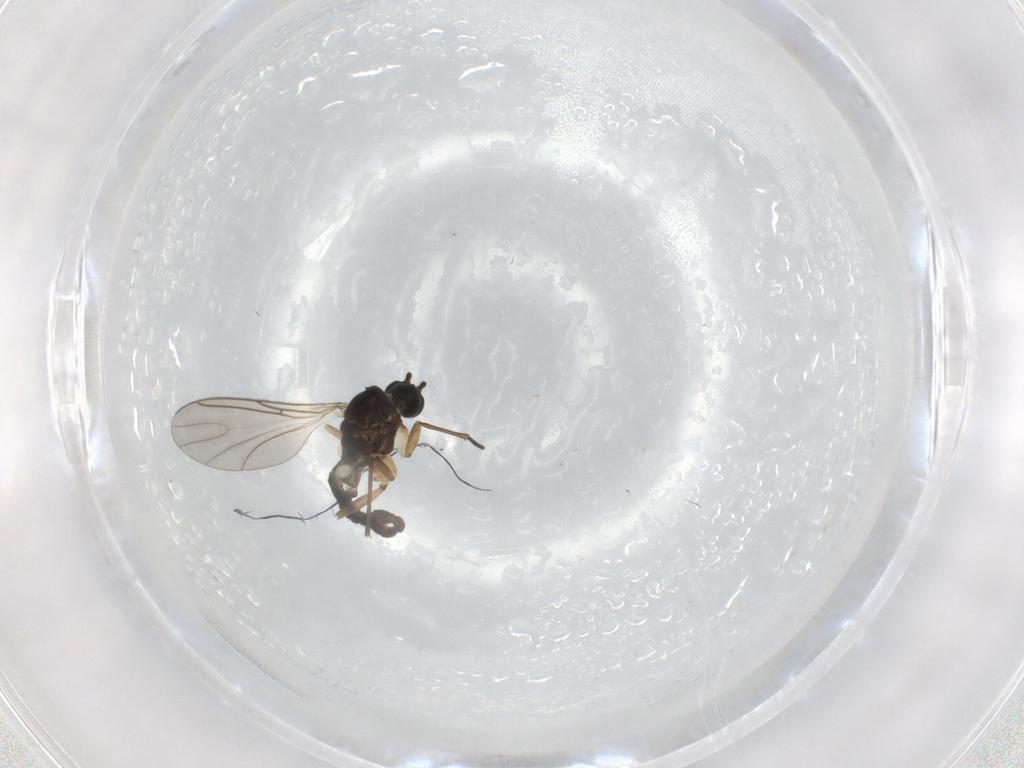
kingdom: Animalia
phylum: Arthropoda
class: Insecta
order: Diptera
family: Sciaridae
